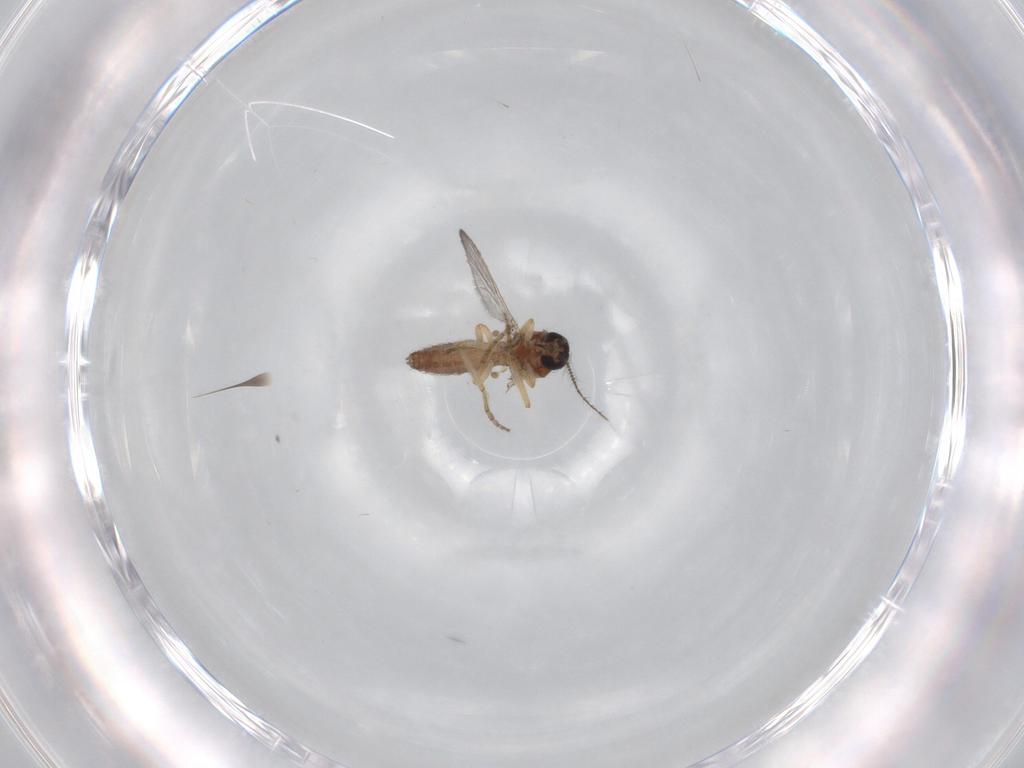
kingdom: Animalia
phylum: Arthropoda
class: Insecta
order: Diptera
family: Ceratopogonidae
